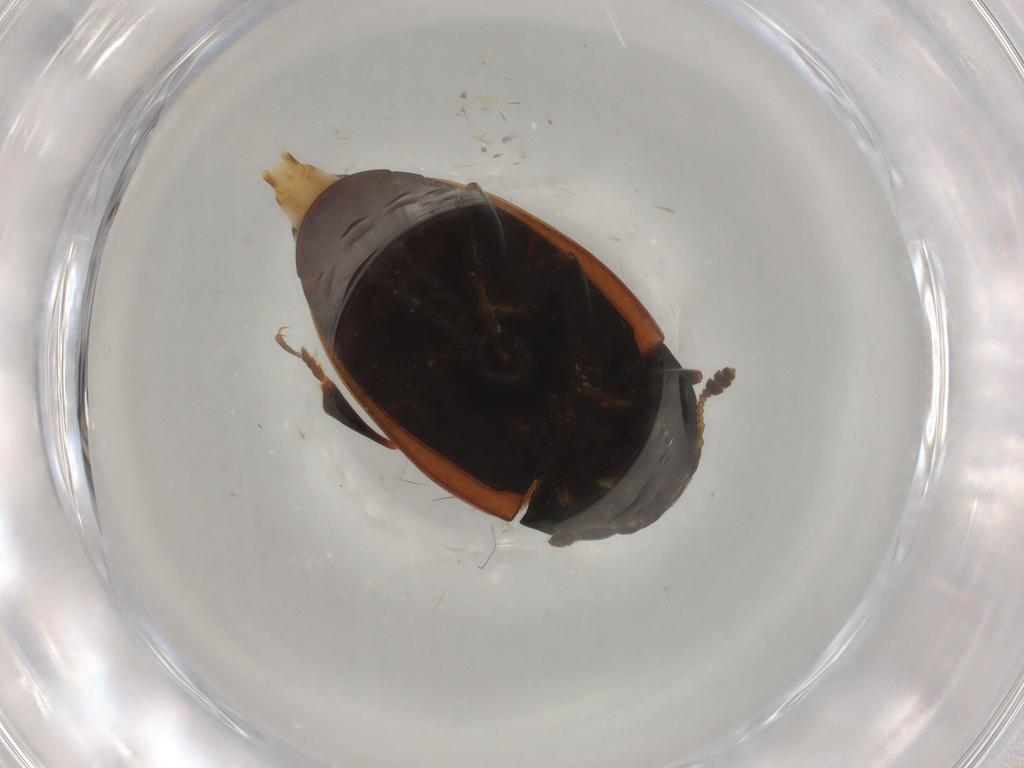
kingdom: Animalia
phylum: Arthropoda
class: Insecta
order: Coleoptera
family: Erotylidae
